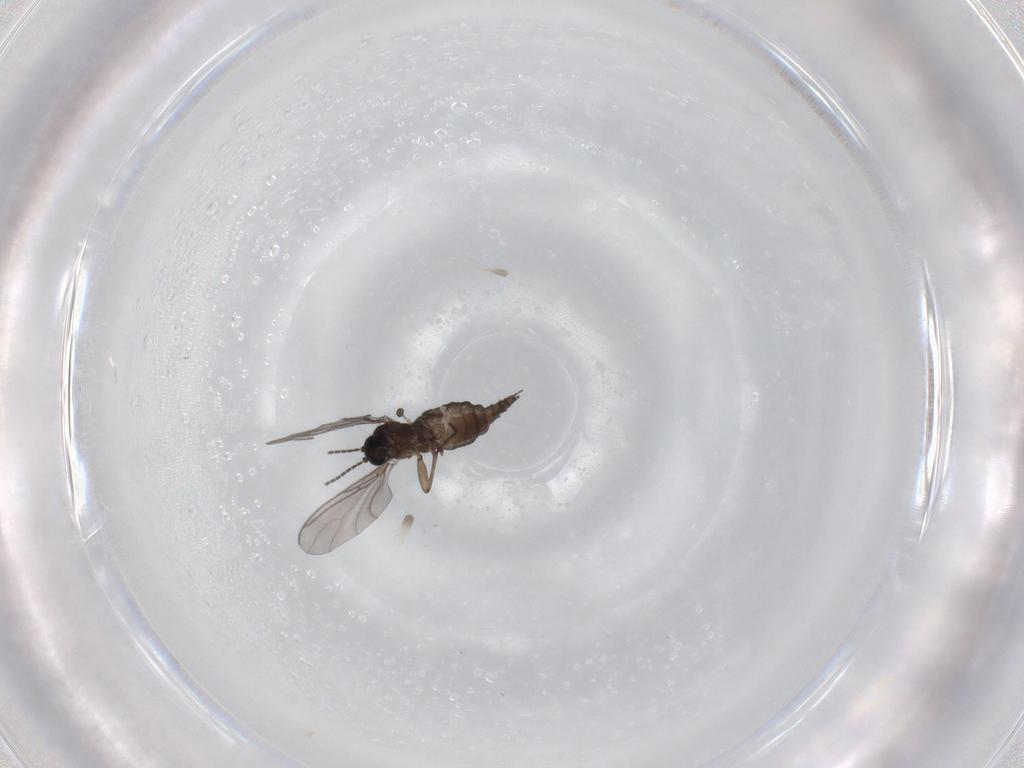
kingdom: Animalia
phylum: Arthropoda
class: Insecta
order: Diptera
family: Sciaridae
